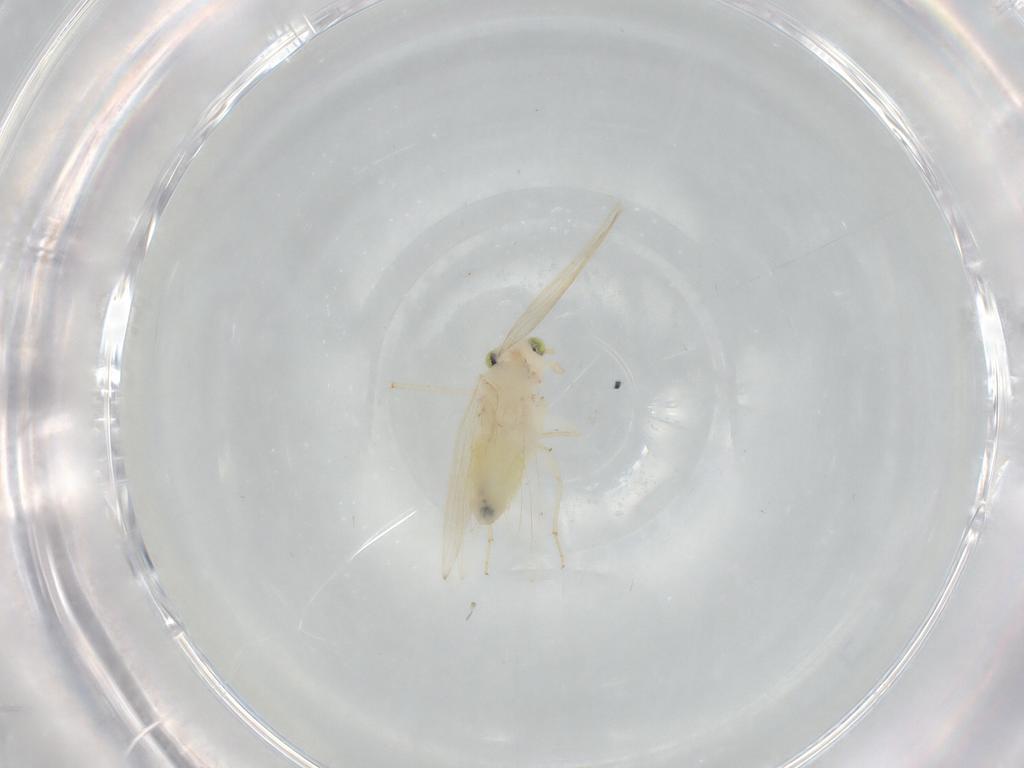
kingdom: Animalia
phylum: Arthropoda
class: Insecta
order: Psocodea
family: Lepidopsocidae
